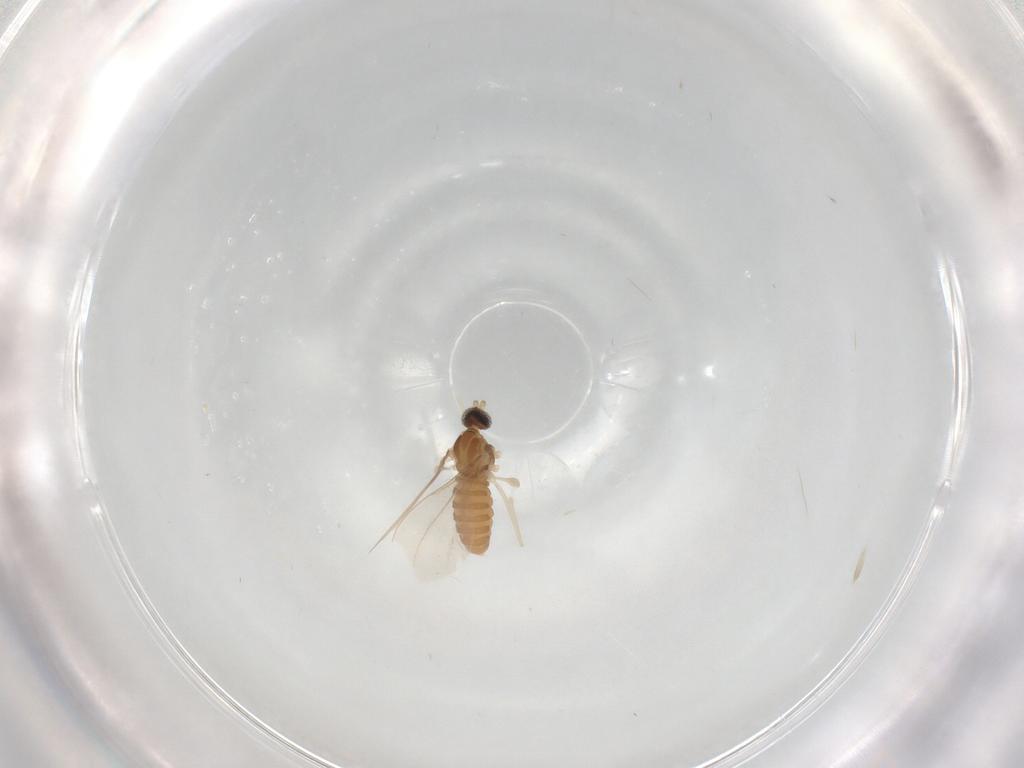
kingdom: Animalia
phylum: Arthropoda
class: Insecta
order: Diptera
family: Cecidomyiidae
